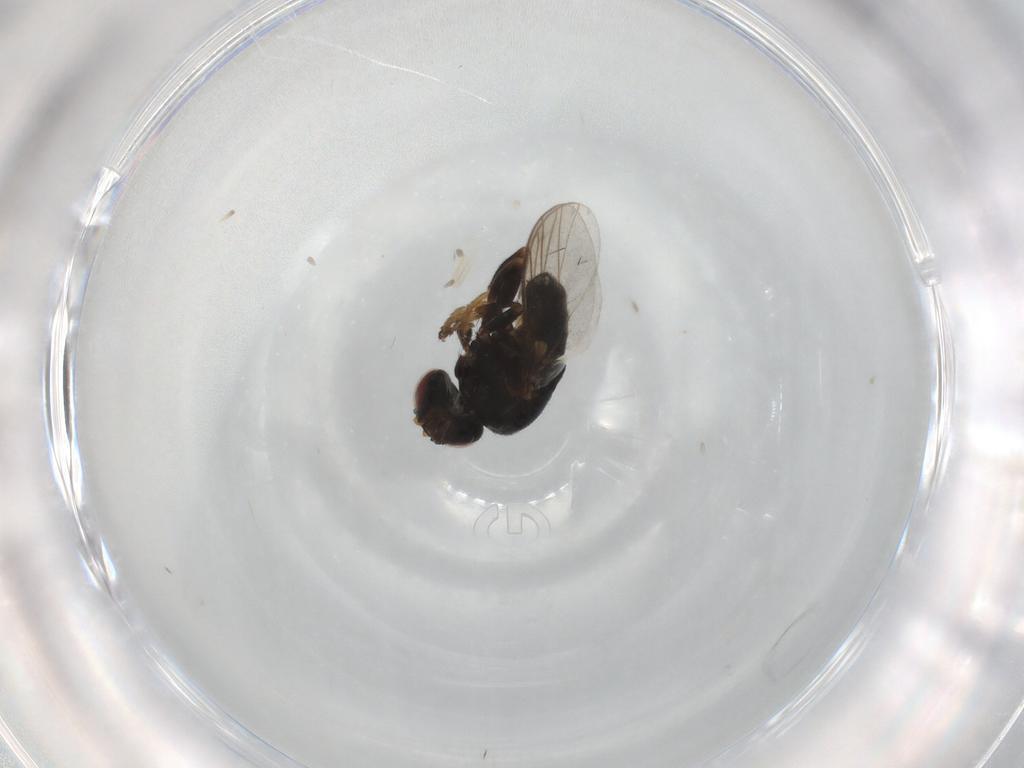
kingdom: Animalia
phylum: Arthropoda
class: Insecta
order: Diptera
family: Chloropidae
